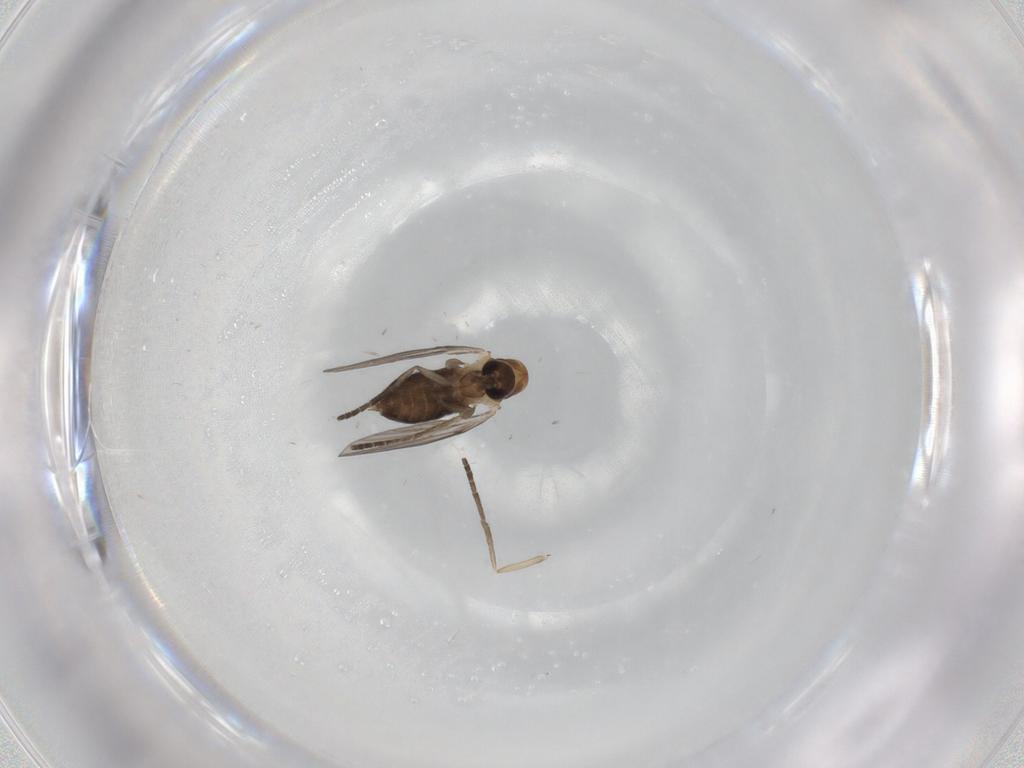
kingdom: Animalia
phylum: Arthropoda
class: Insecta
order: Diptera
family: Psychodidae
